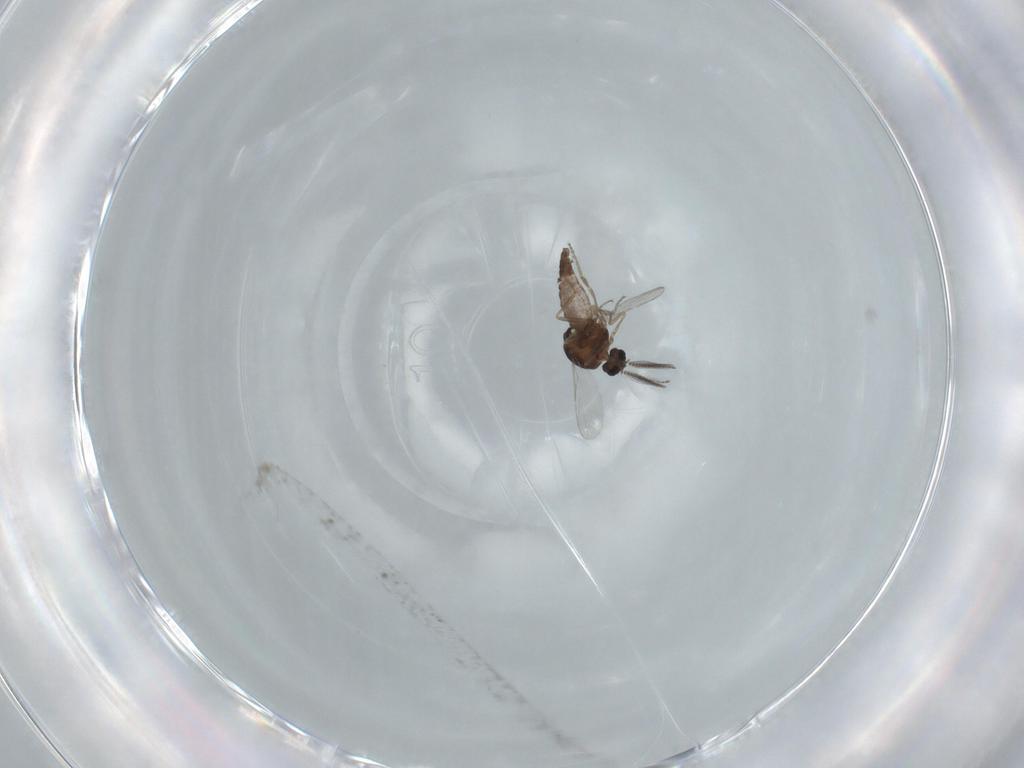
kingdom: Animalia
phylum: Arthropoda
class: Insecta
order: Diptera
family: Ceratopogonidae
